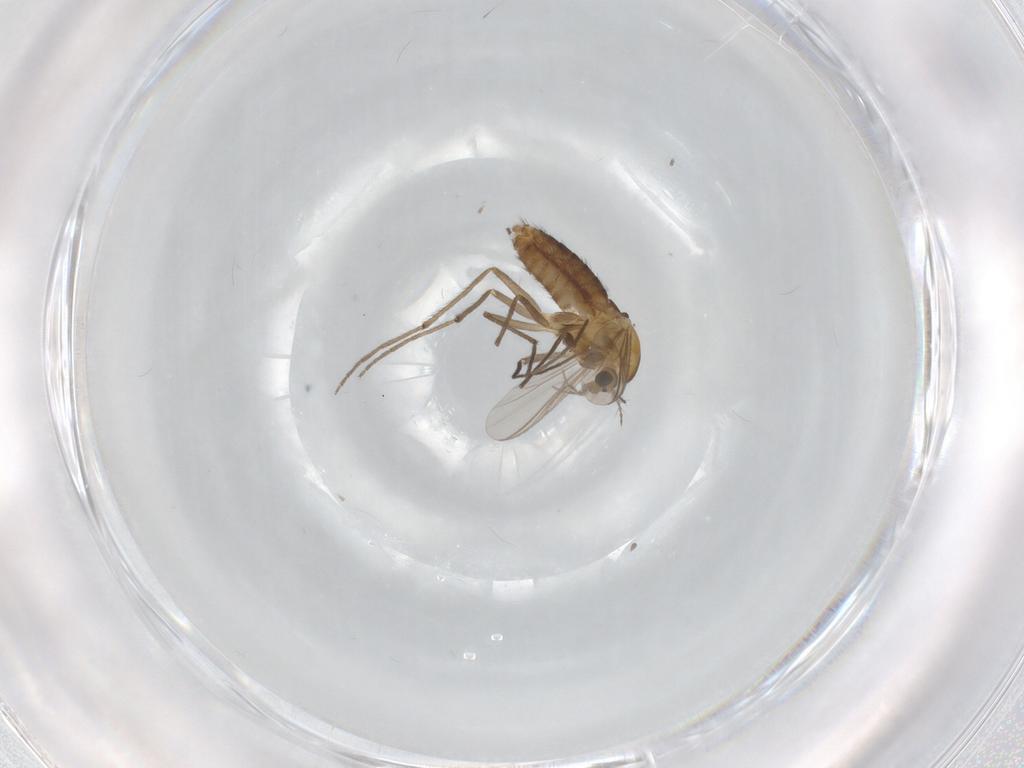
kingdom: Animalia
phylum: Arthropoda
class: Insecta
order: Diptera
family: Chironomidae
